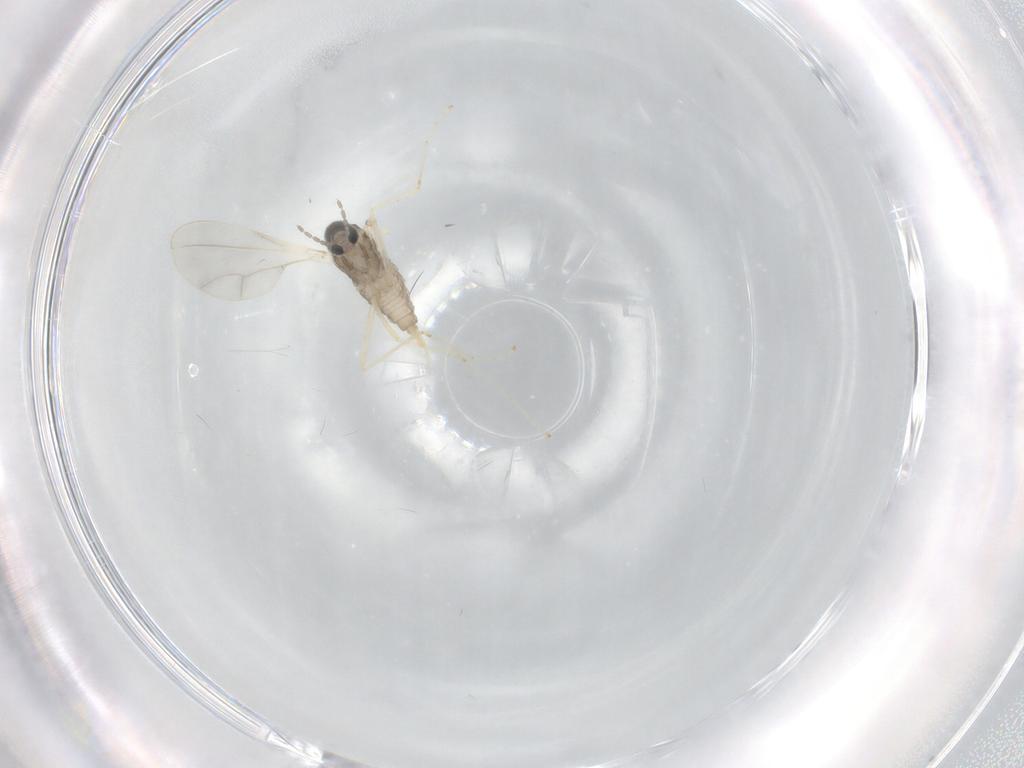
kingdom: Animalia
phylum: Arthropoda
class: Insecta
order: Diptera
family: Cecidomyiidae
